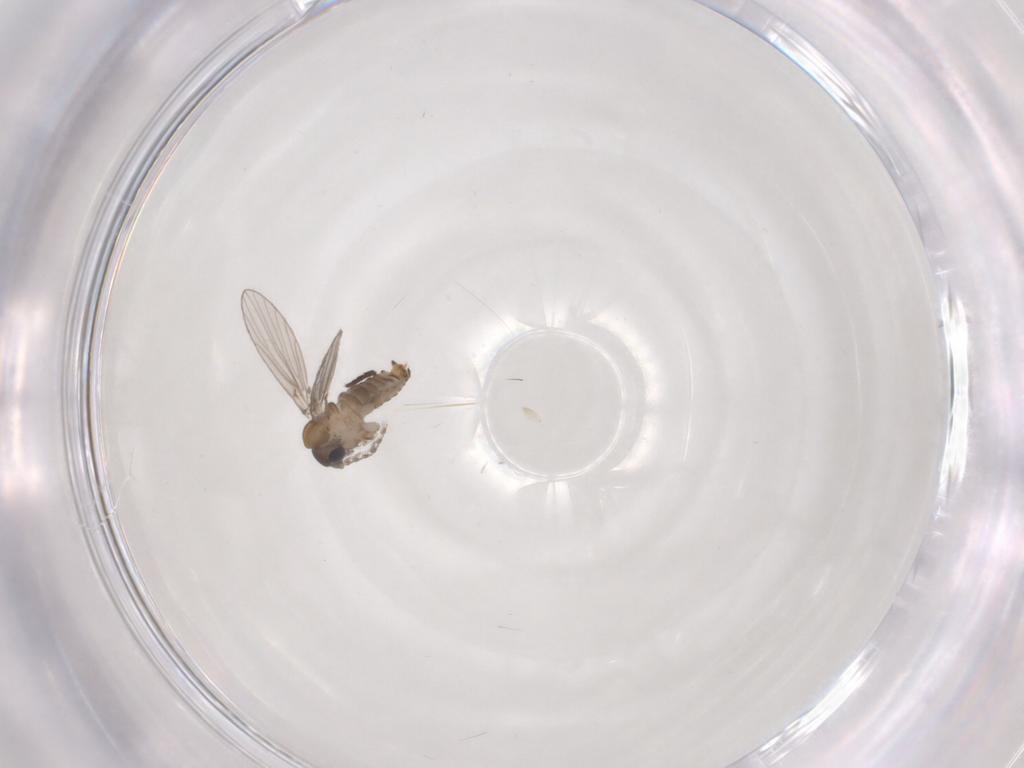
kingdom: Animalia
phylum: Arthropoda
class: Insecta
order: Diptera
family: Psychodidae
